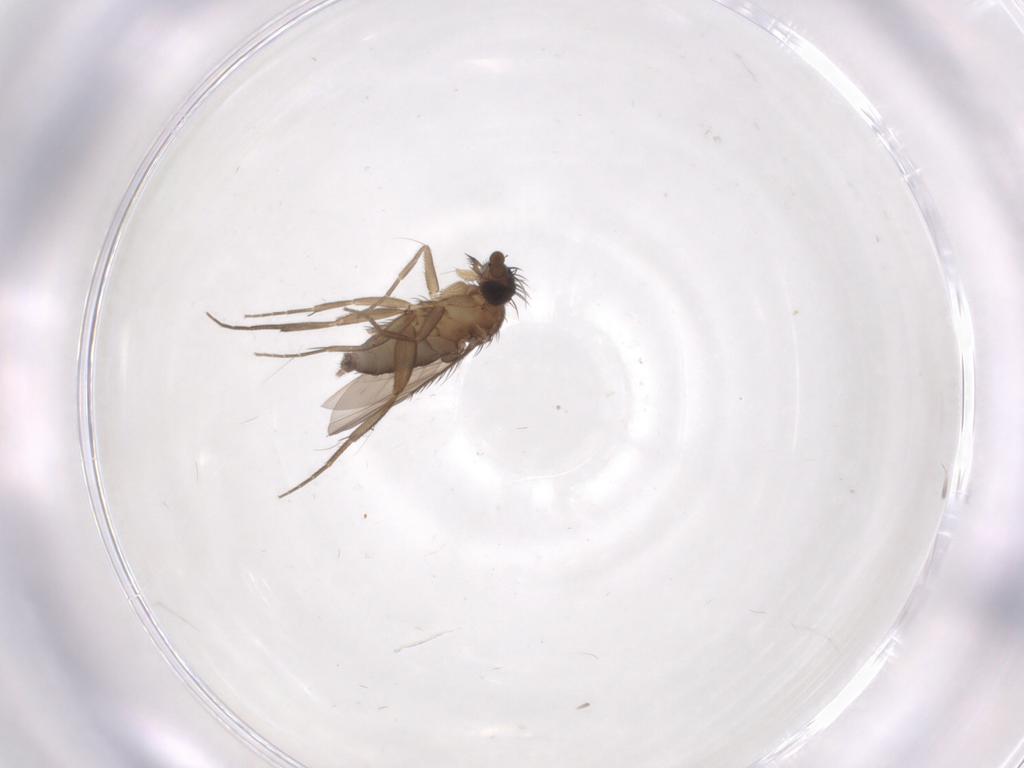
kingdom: Animalia
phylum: Arthropoda
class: Insecta
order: Diptera
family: Phoridae
